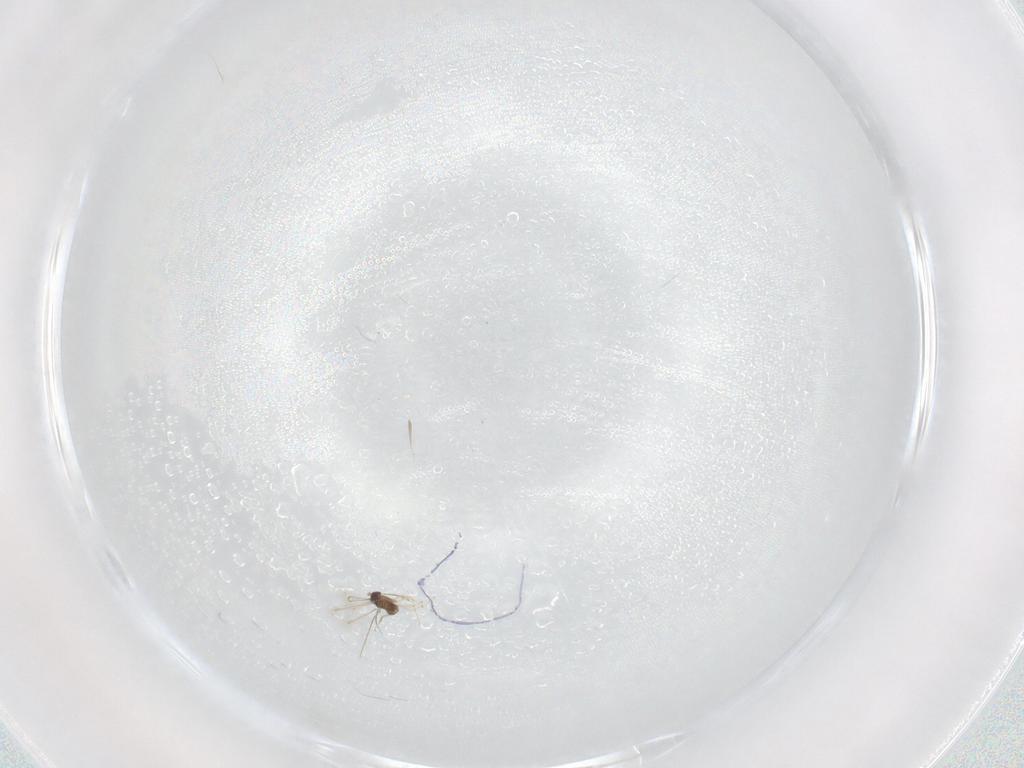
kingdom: Animalia
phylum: Arthropoda
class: Insecta
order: Hymenoptera
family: Mymaridae
